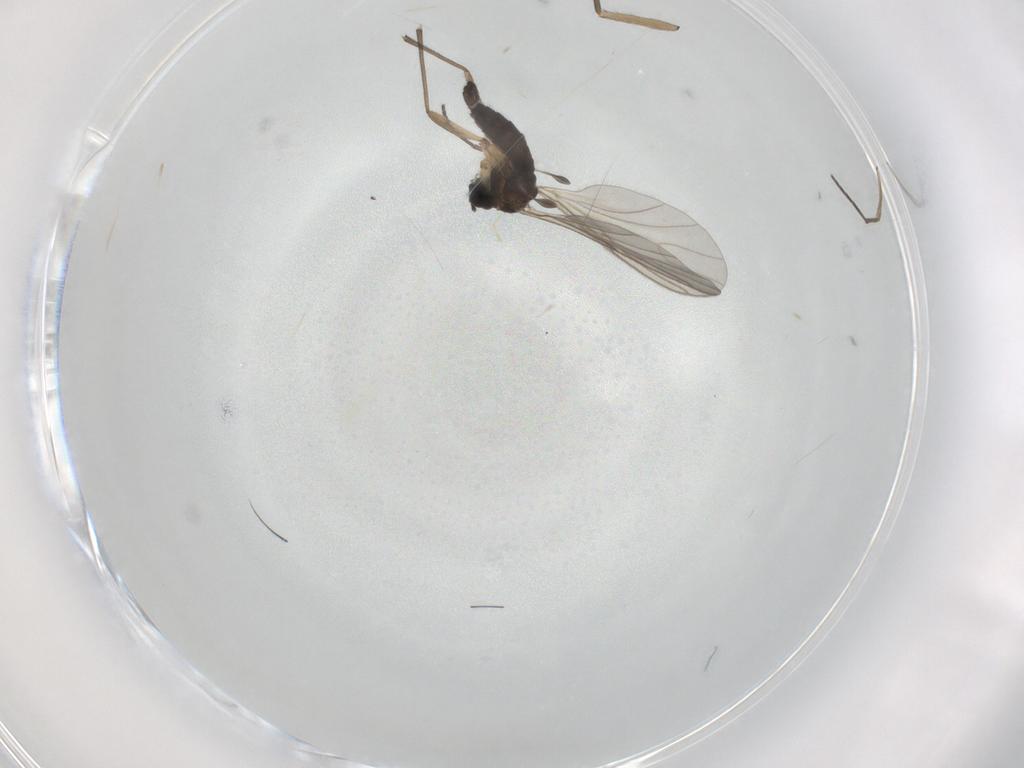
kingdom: Animalia
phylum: Arthropoda
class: Insecta
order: Diptera
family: Sciaridae
